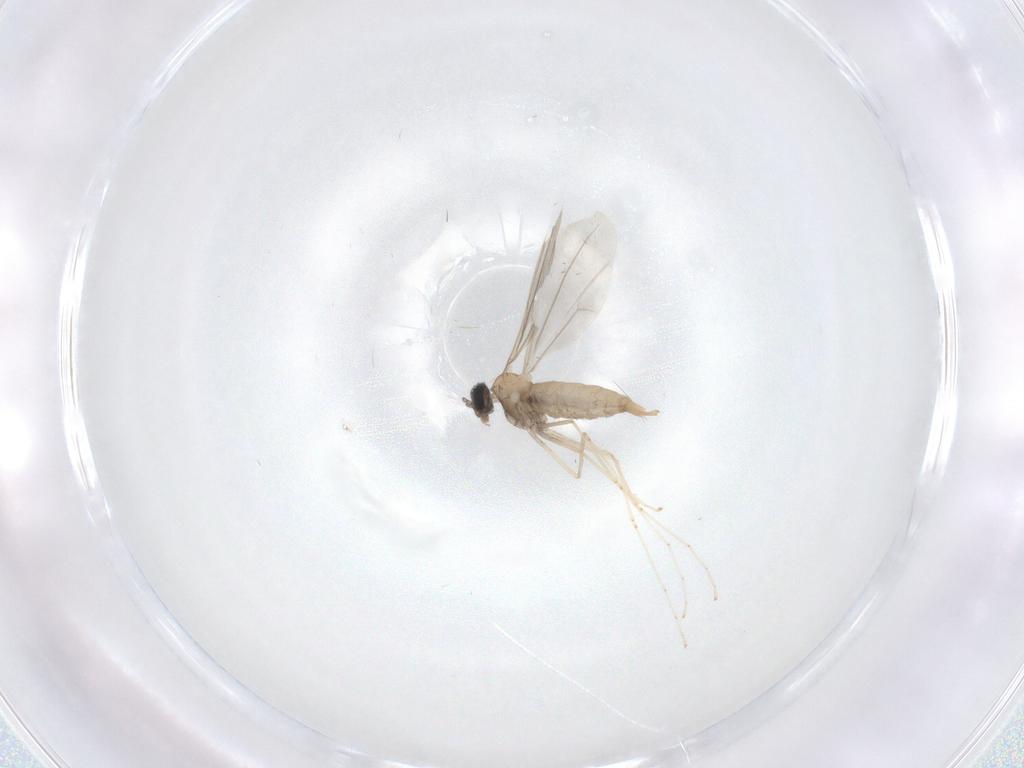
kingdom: Animalia
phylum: Arthropoda
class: Insecta
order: Diptera
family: Cecidomyiidae
